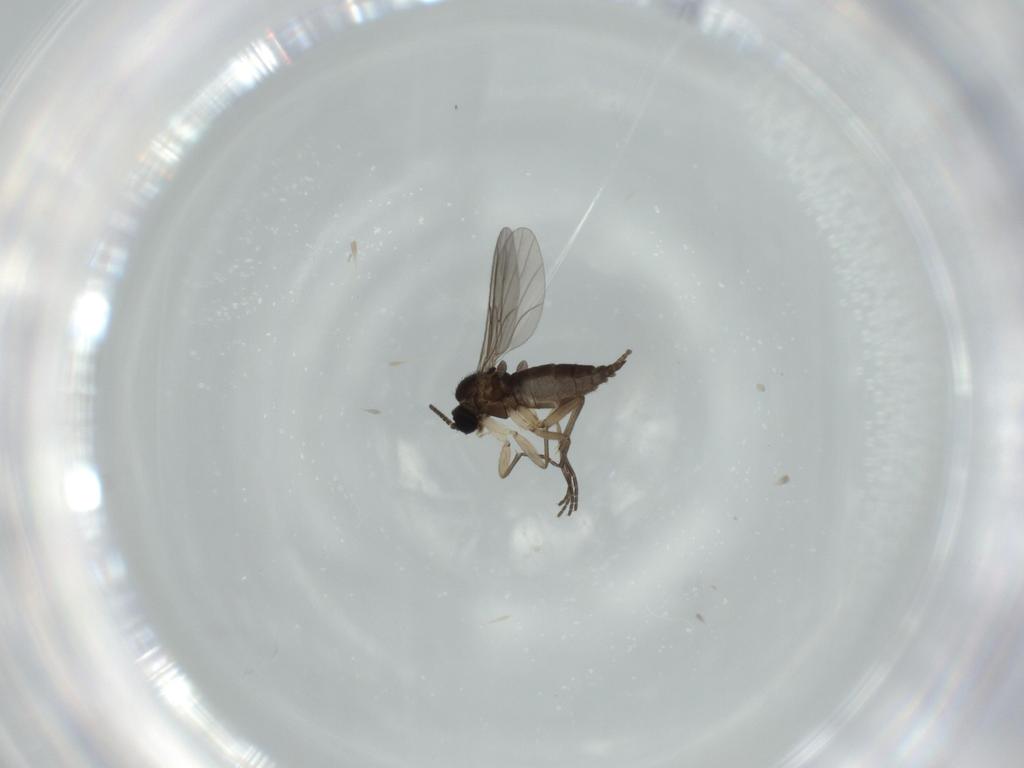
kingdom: Animalia
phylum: Arthropoda
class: Insecta
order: Diptera
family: Sciaridae
